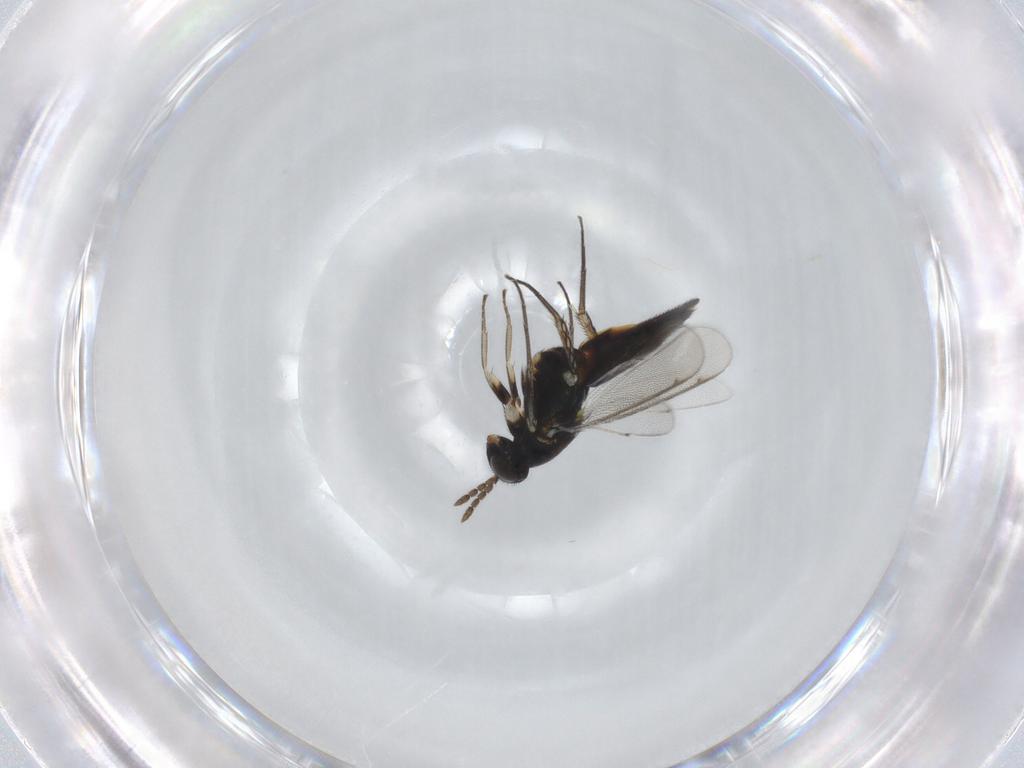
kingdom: Animalia
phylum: Arthropoda
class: Insecta
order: Hymenoptera
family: Eulophidae
